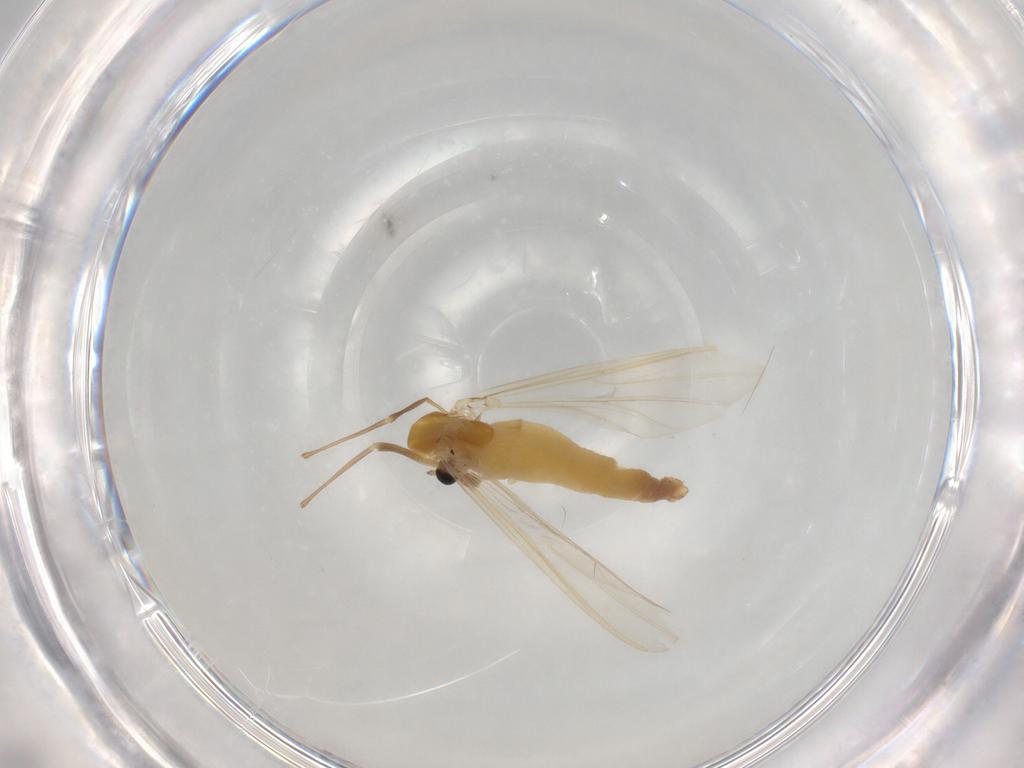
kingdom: Animalia
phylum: Arthropoda
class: Insecta
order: Diptera
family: Muscidae
